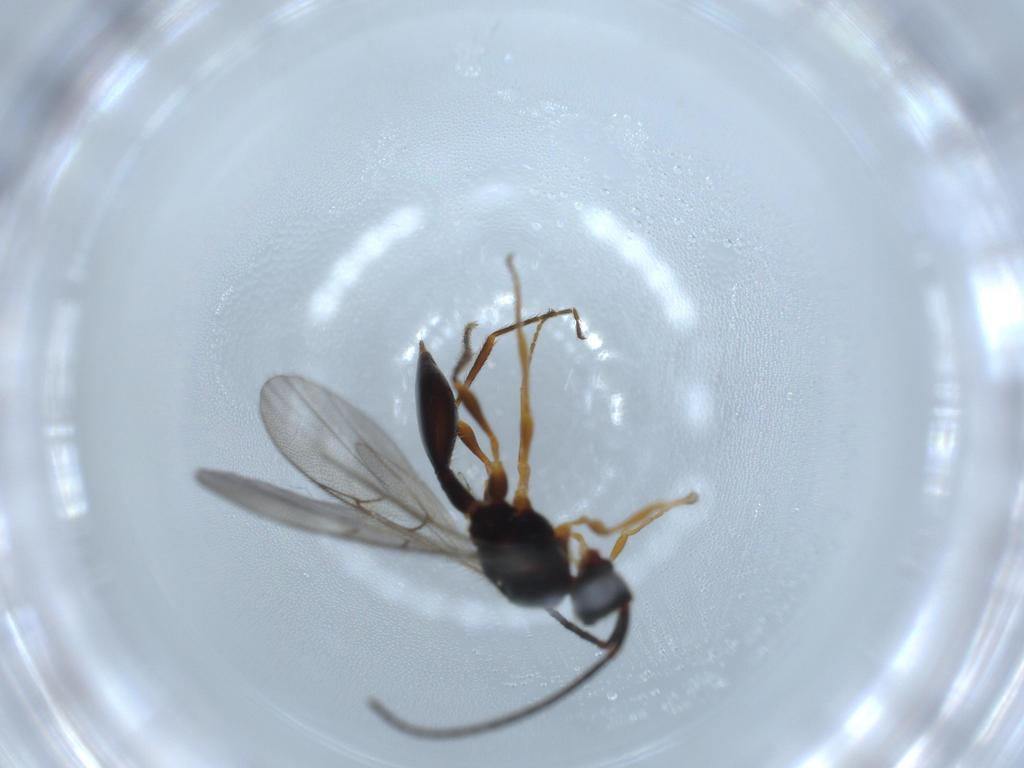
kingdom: Animalia
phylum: Arthropoda
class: Insecta
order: Hymenoptera
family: Diapriidae
